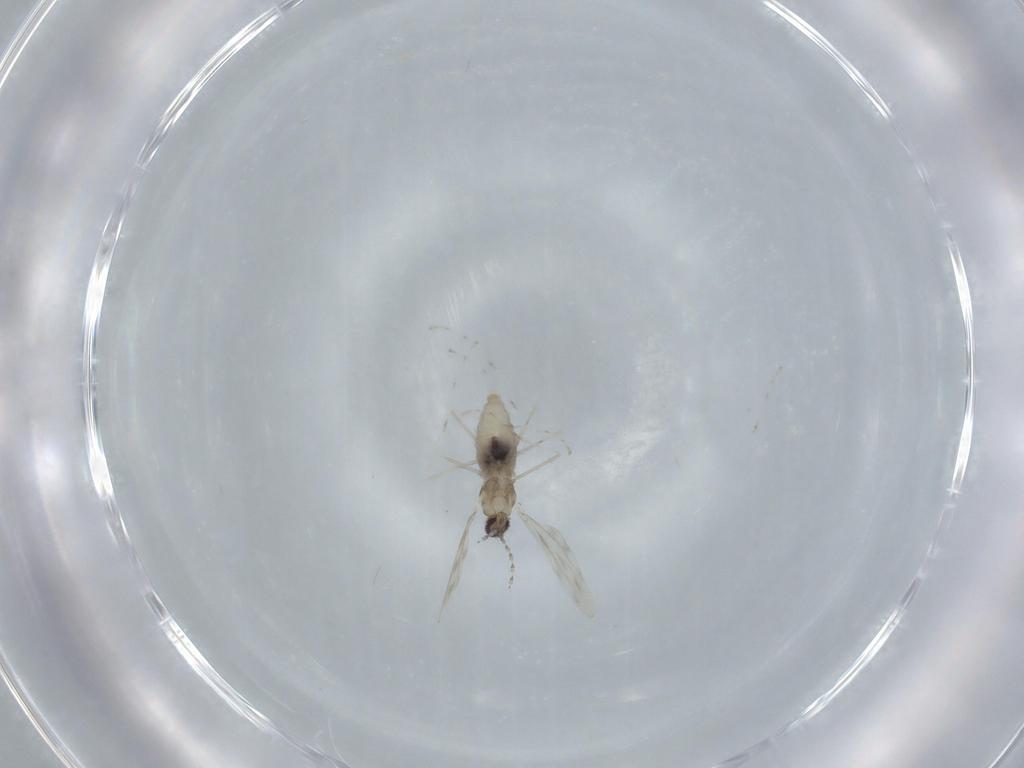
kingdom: Animalia
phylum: Arthropoda
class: Insecta
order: Diptera
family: Cecidomyiidae
